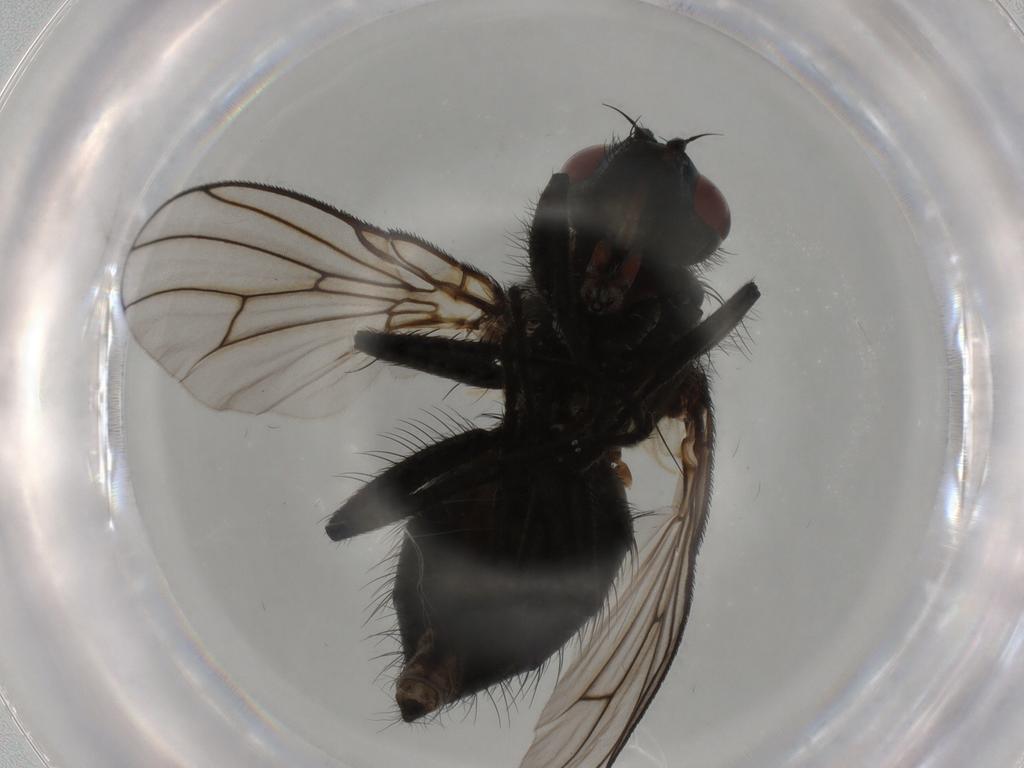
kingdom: Animalia
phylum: Arthropoda
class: Insecta
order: Diptera
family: Muscidae
